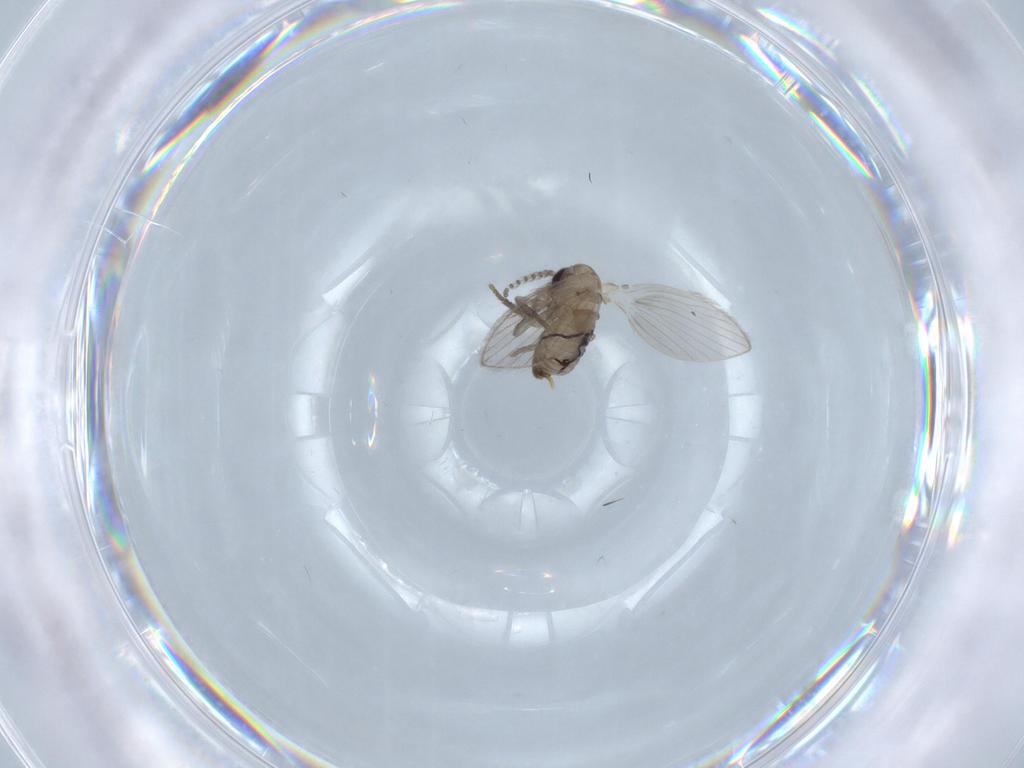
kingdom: Animalia
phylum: Arthropoda
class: Insecta
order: Diptera
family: Psychodidae
